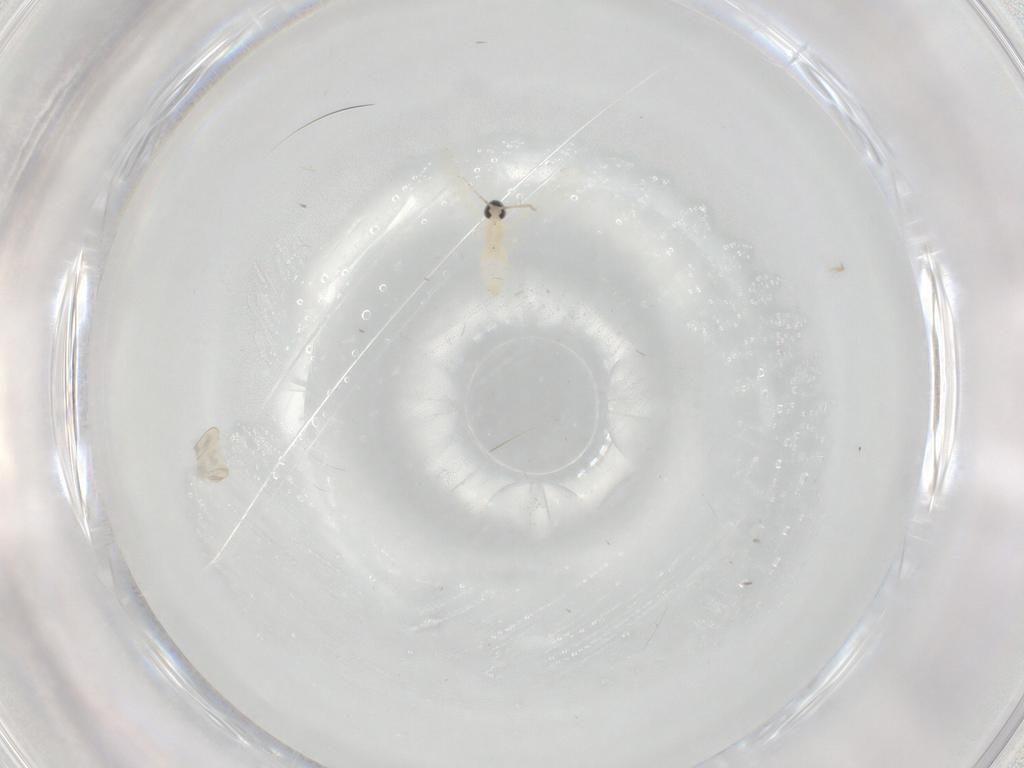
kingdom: Animalia
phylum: Arthropoda
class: Insecta
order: Diptera
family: Cecidomyiidae
